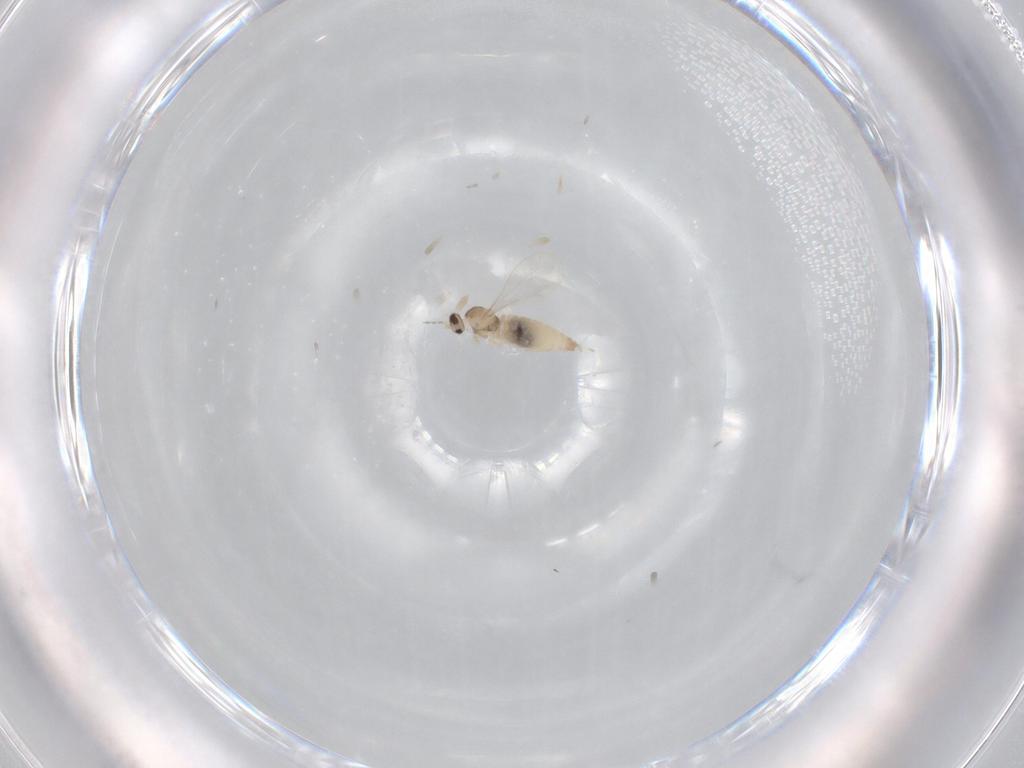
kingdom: Animalia
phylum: Arthropoda
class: Insecta
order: Diptera
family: Cecidomyiidae
